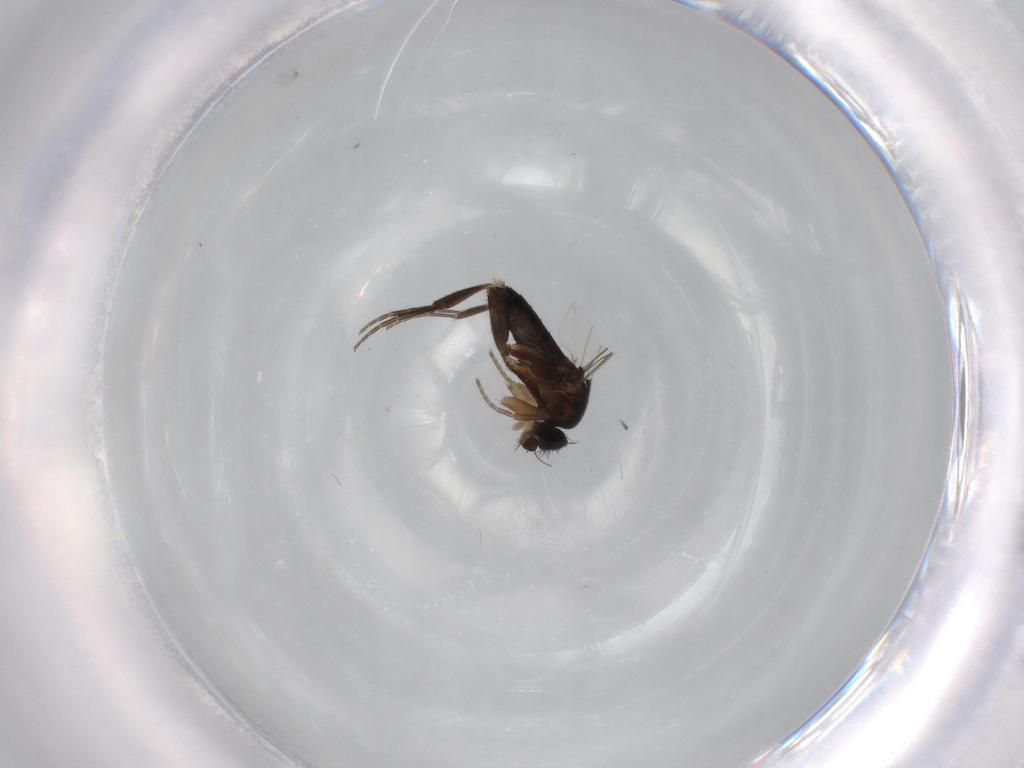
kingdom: Animalia
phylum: Arthropoda
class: Insecta
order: Diptera
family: Phoridae
